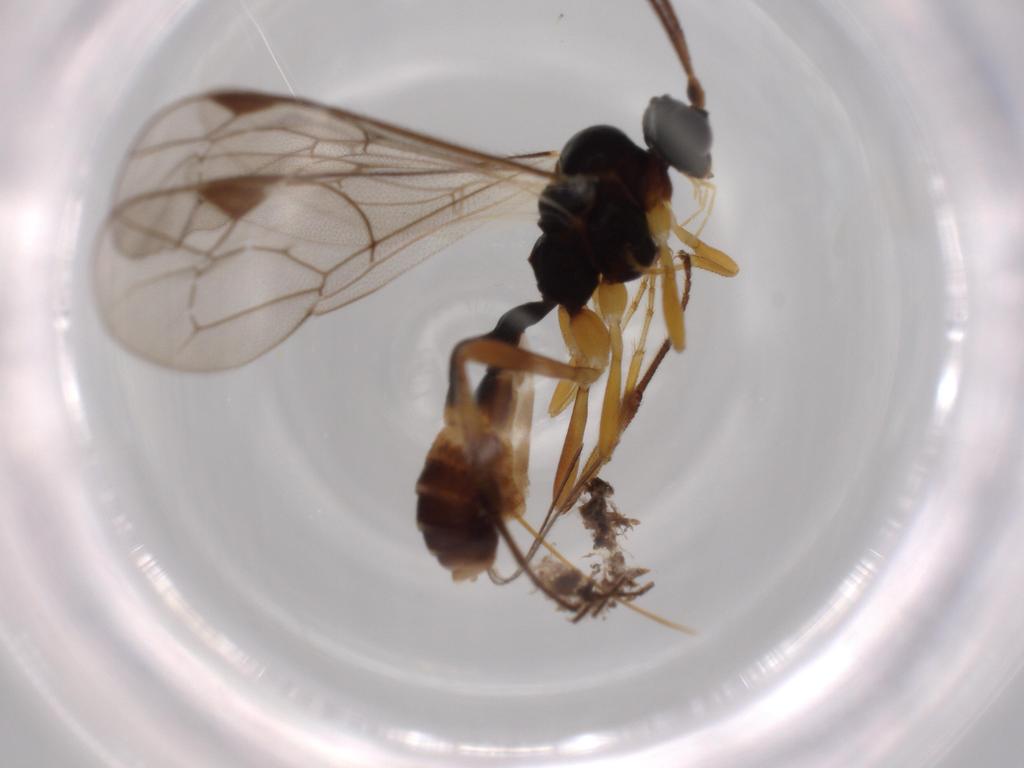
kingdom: Animalia
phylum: Arthropoda
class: Insecta
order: Hymenoptera
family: Ichneumonidae
